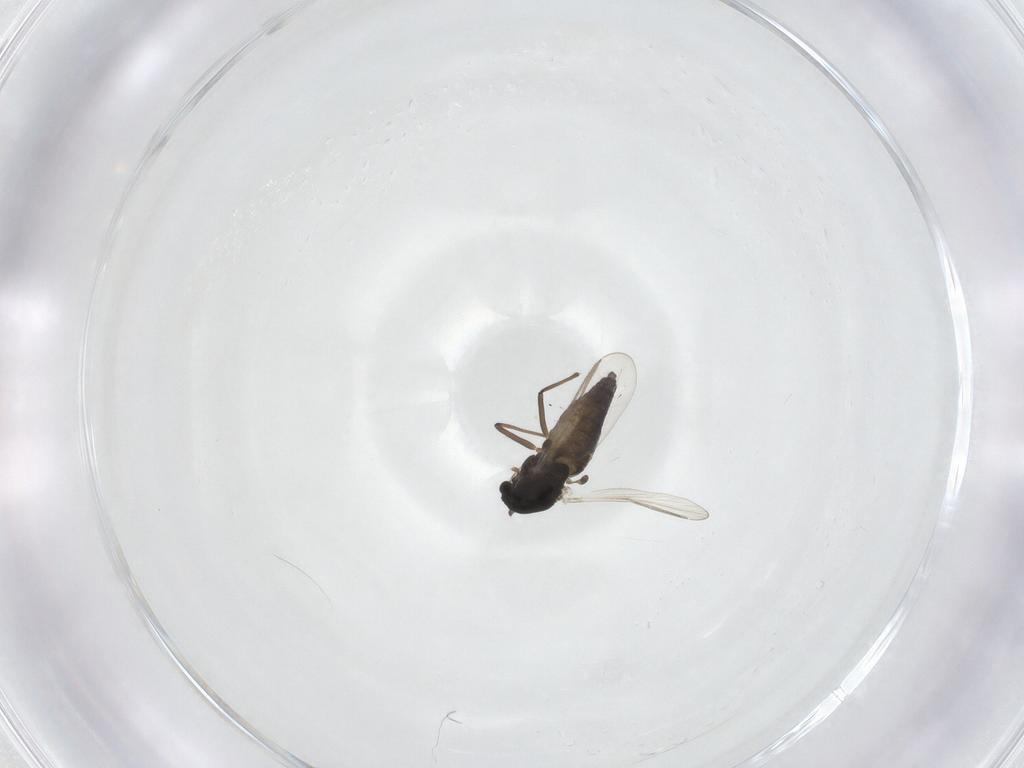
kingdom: Animalia
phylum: Arthropoda
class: Insecta
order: Diptera
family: Chironomidae
